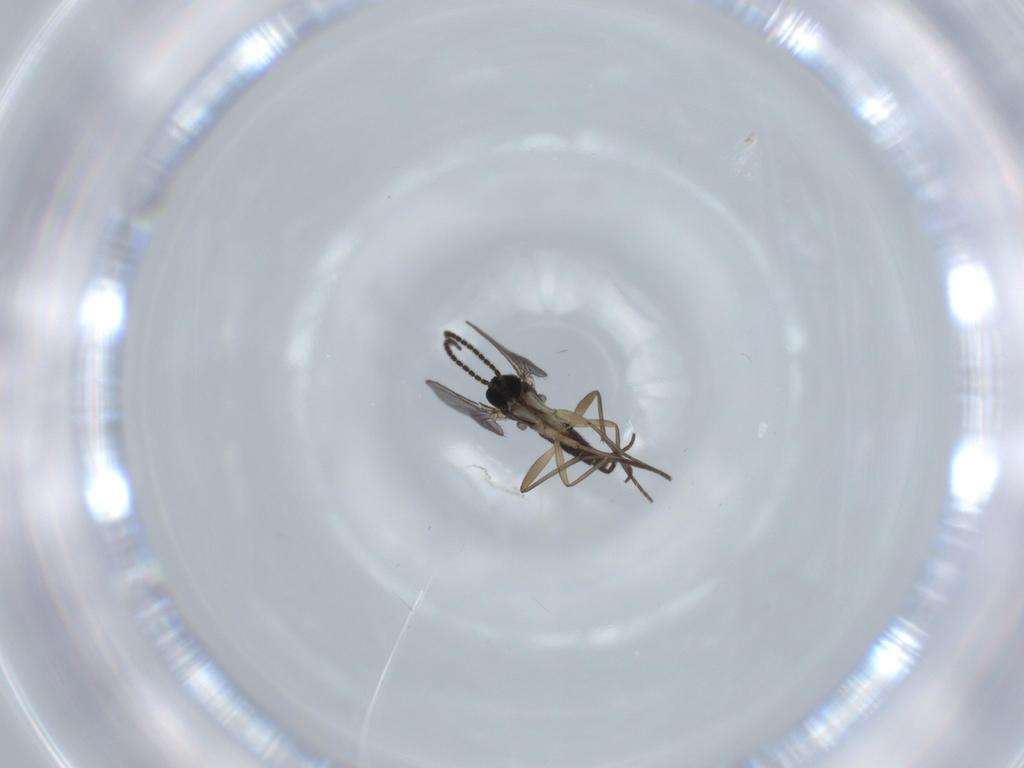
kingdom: Animalia
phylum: Arthropoda
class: Insecta
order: Diptera
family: Sciaridae
